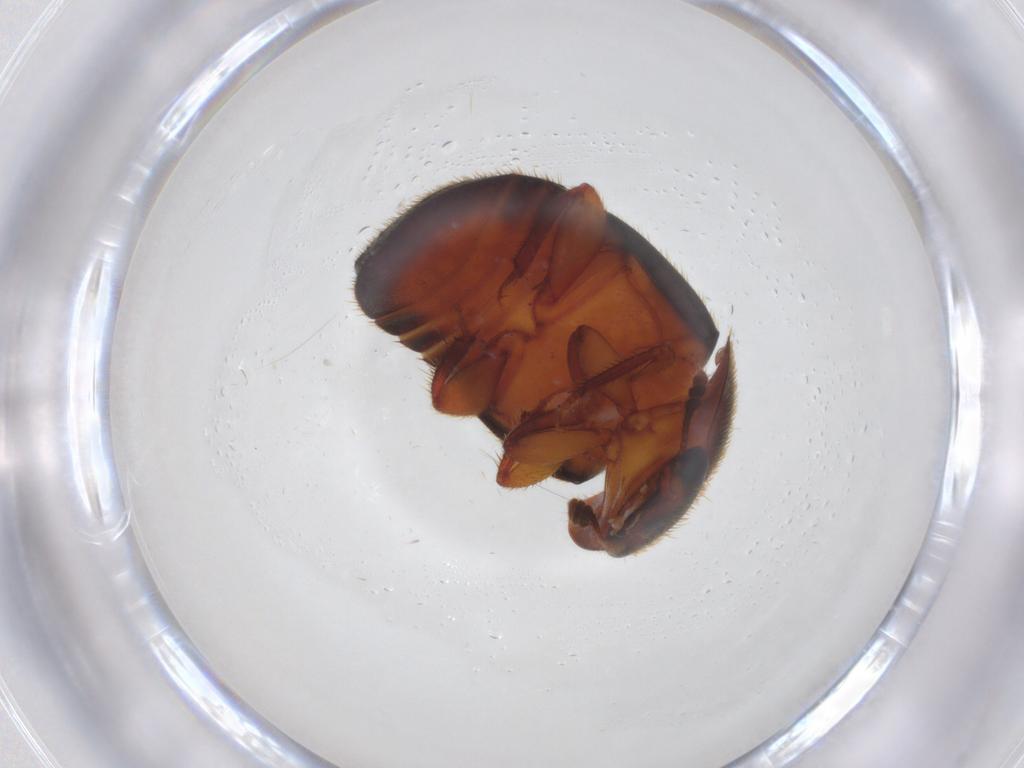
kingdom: Animalia
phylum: Arthropoda
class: Insecta
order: Coleoptera
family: Nitidulidae
